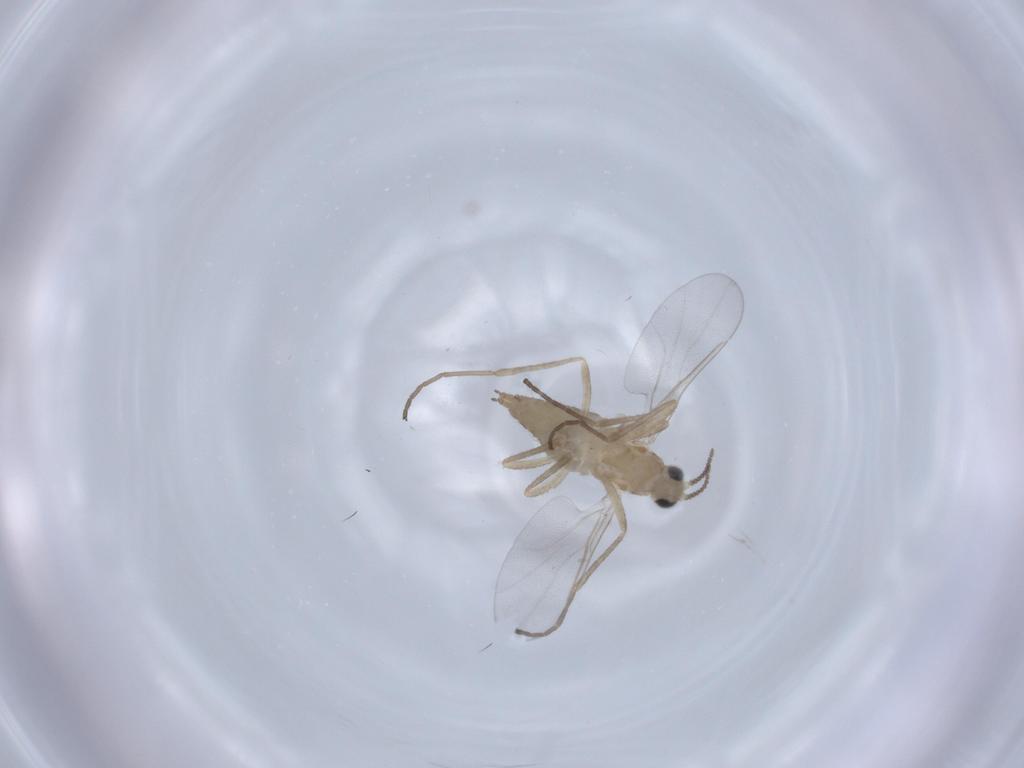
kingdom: Animalia
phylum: Arthropoda
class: Insecta
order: Diptera
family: Cecidomyiidae
